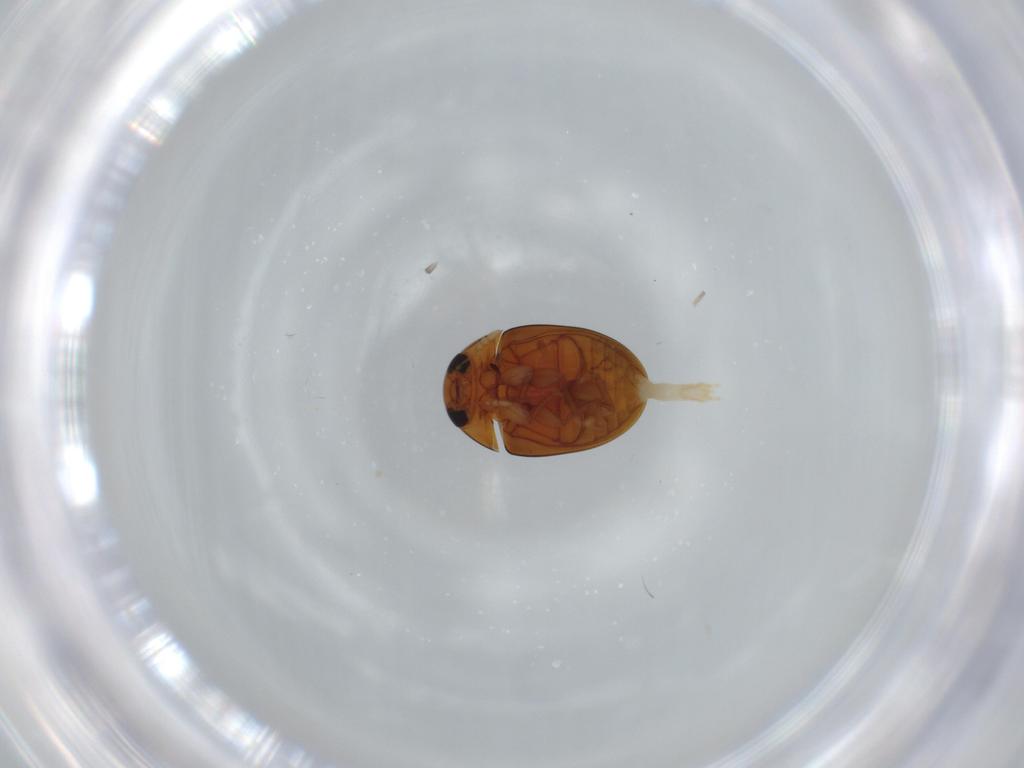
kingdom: Animalia
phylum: Arthropoda
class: Insecta
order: Coleoptera
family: Phalacridae
